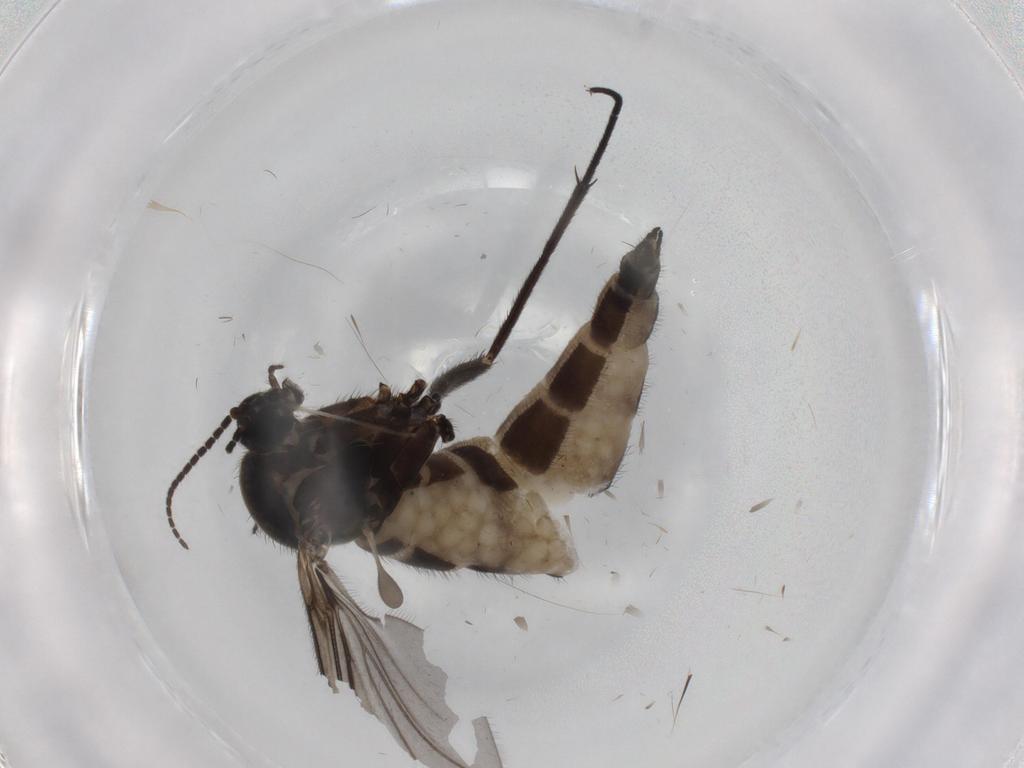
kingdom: Animalia
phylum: Arthropoda
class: Insecta
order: Diptera
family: Sciaridae
